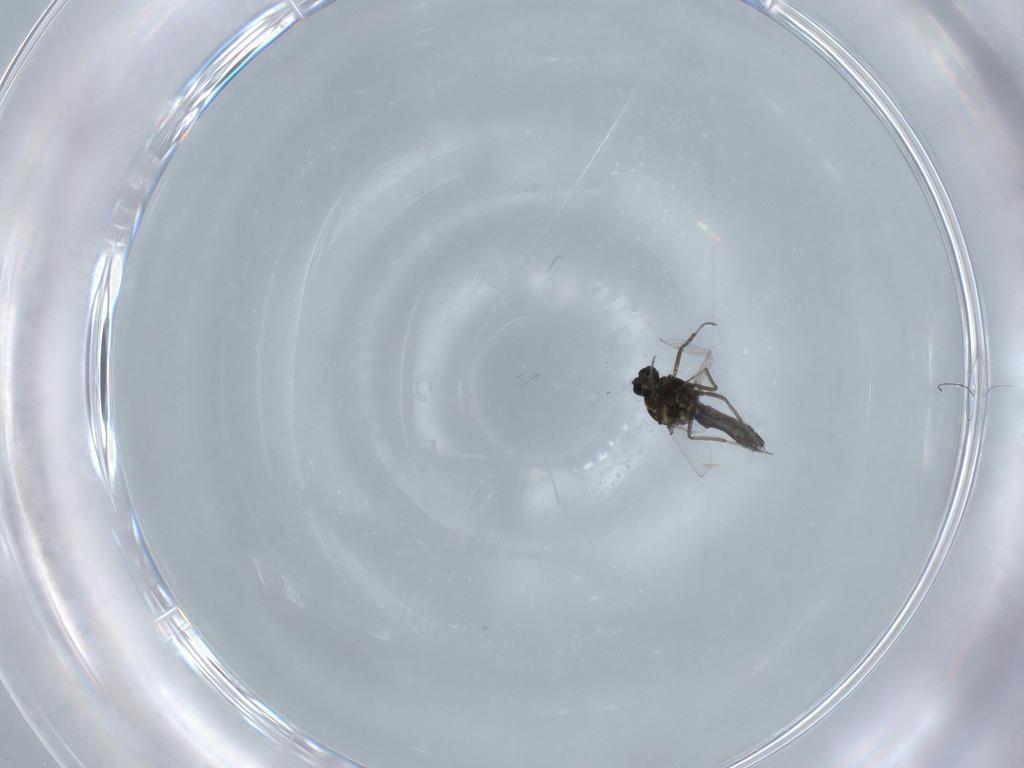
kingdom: Animalia
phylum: Arthropoda
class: Insecta
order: Diptera
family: Ceratopogonidae
